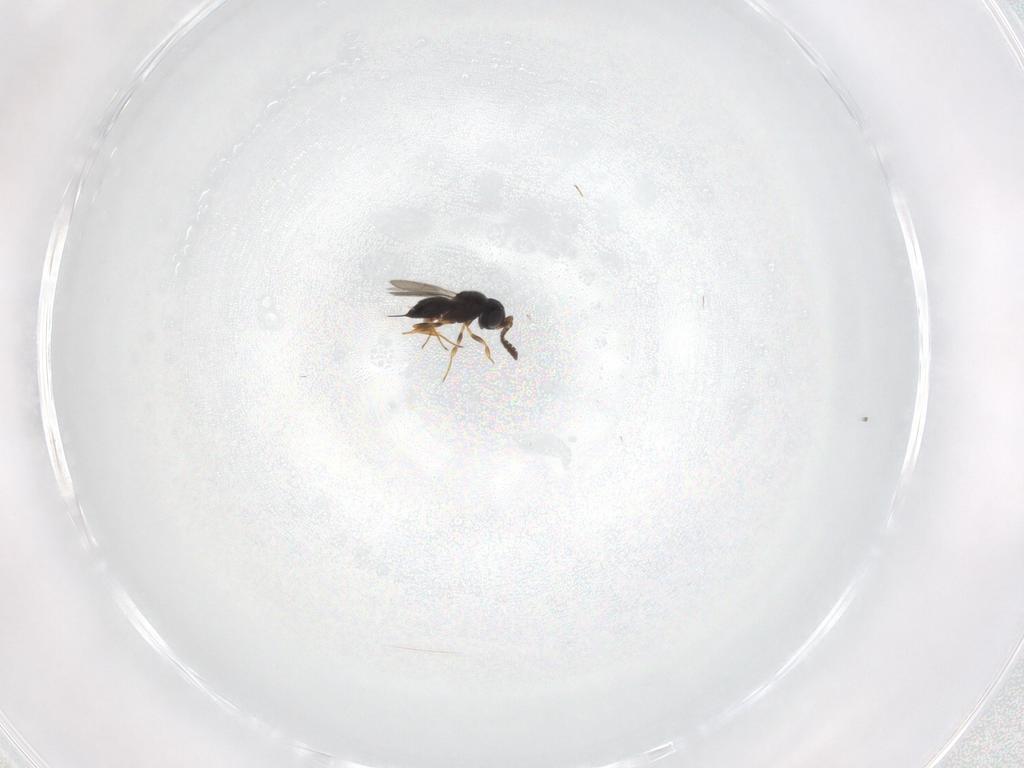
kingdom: Animalia
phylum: Arthropoda
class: Insecta
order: Hymenoptera
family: Scelionidae
